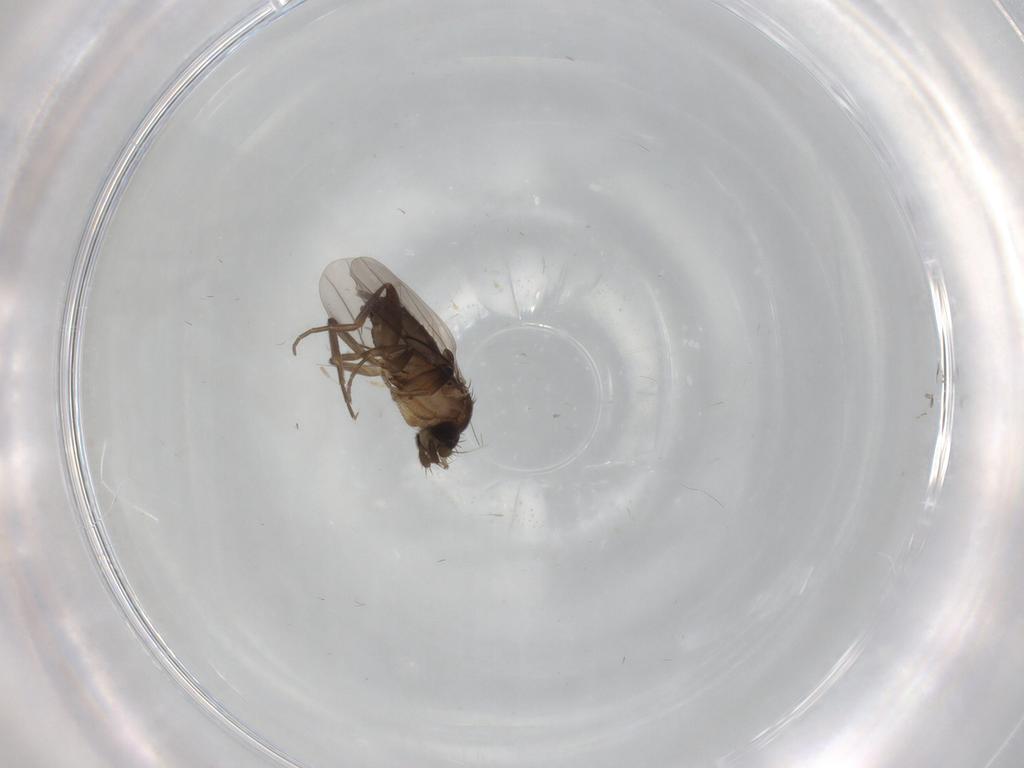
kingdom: Animalia
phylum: Arthropoda
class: Insecta
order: Diptera
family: Phoridae
